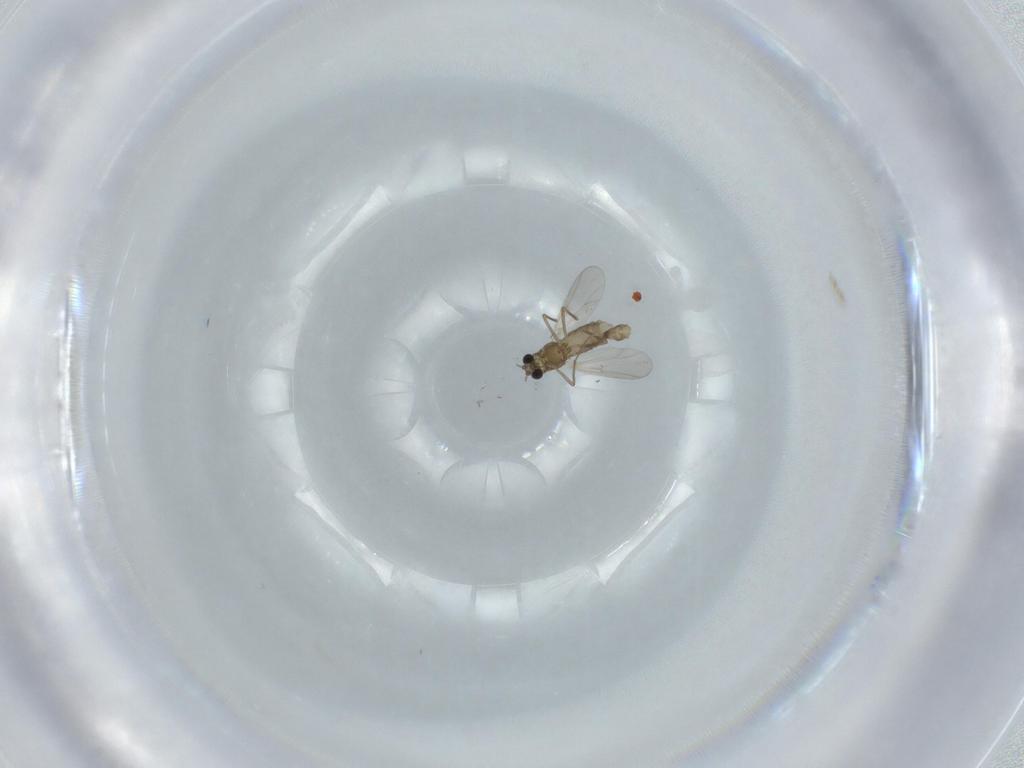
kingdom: Animalia
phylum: Arthropoda
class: Insecta
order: Diptera
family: Chironomidae
